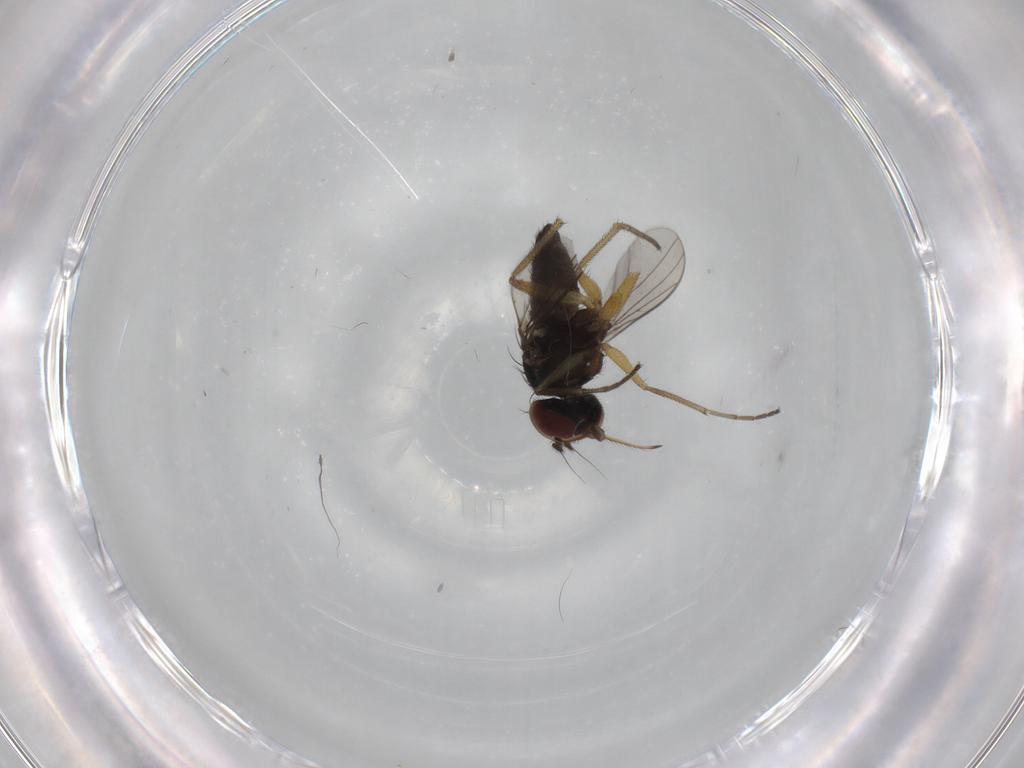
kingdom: Animalia
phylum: Arthropoda
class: Insecta
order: Diptera
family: Dolichopodidae
